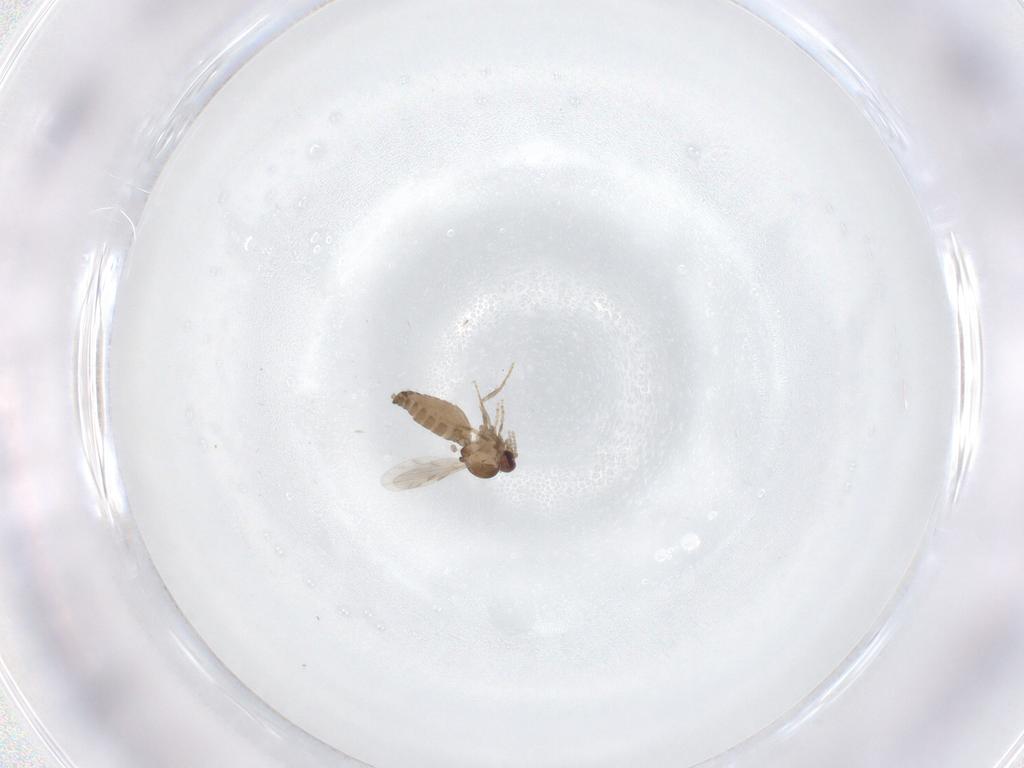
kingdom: Animalia
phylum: Arthropoda
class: Insecta
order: Diptera
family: Ceratopogonidae
